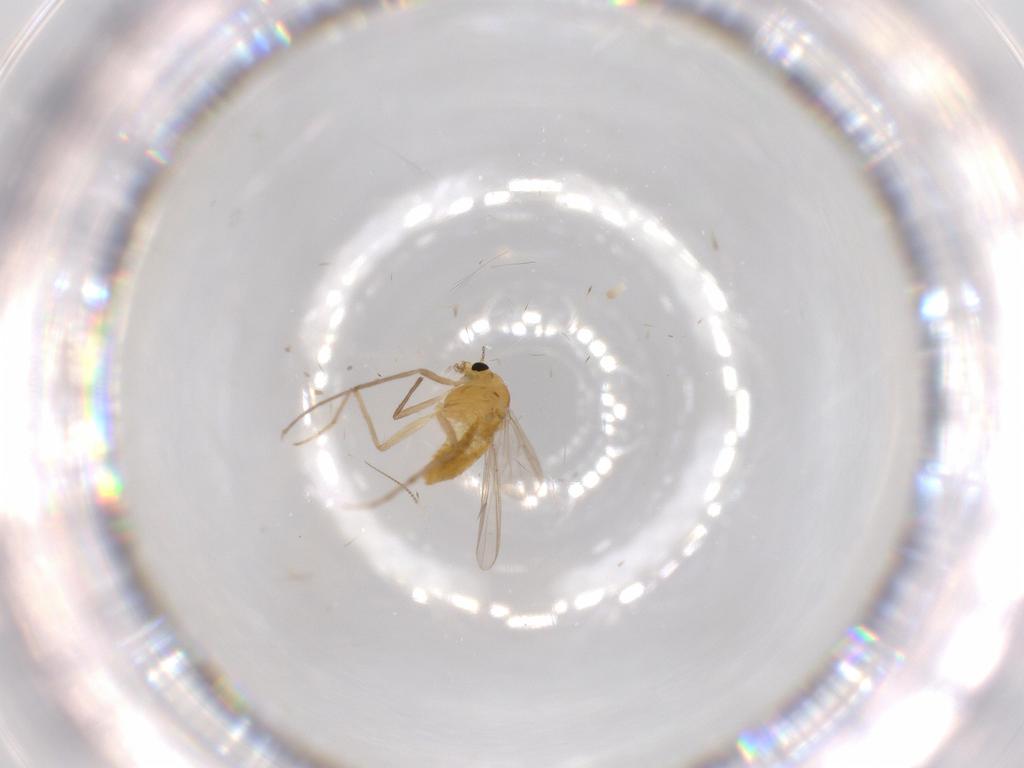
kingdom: Animalia
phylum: Arthropoda
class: Insecta
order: Diptera
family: Chironomidae
